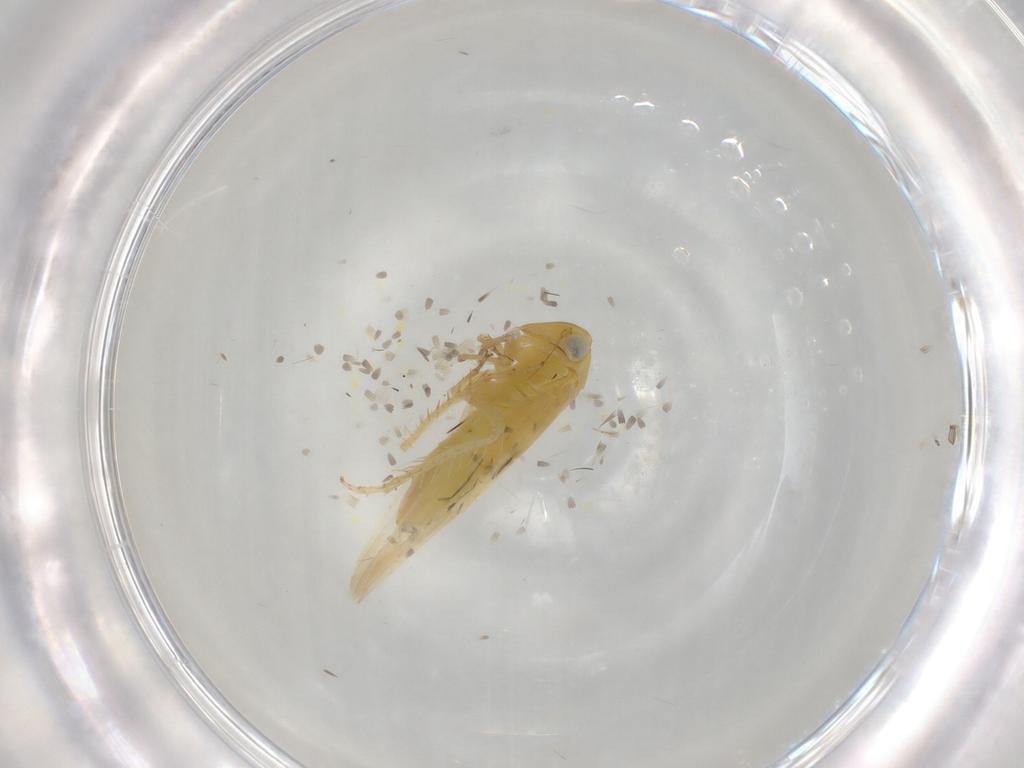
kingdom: Animalia
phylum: Arthropoda
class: Insecta
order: Hemiptera
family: Cicadellidae
